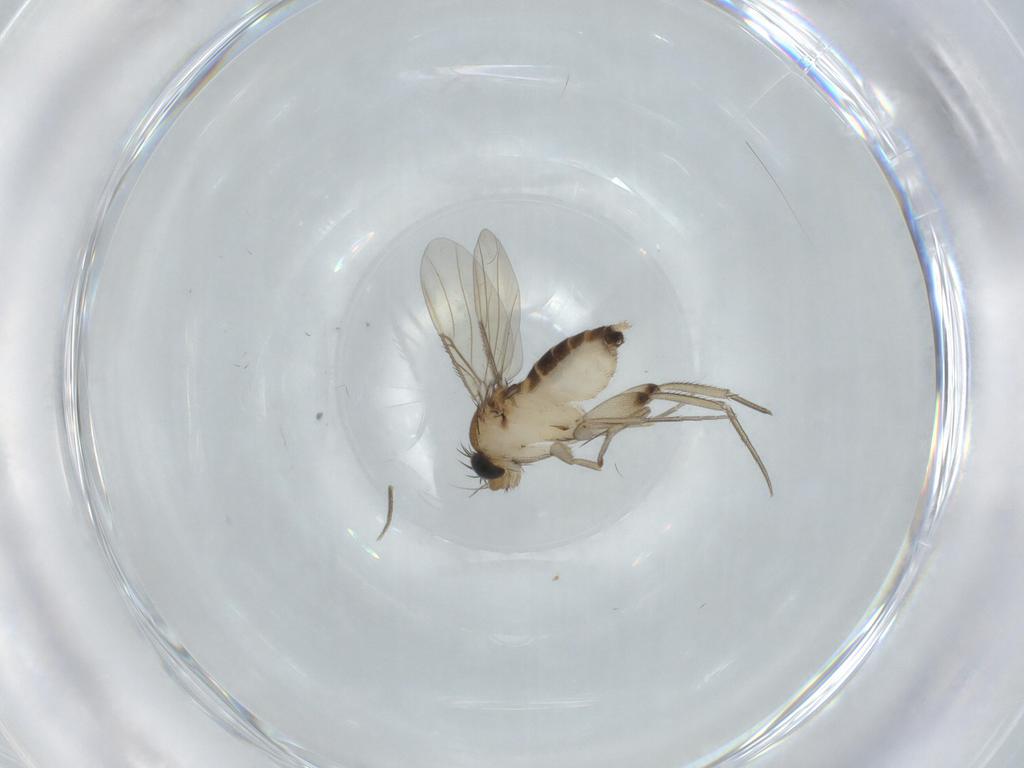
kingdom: Animalia
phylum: Arthropoda
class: Insecta
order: Diptera
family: Phoridae
